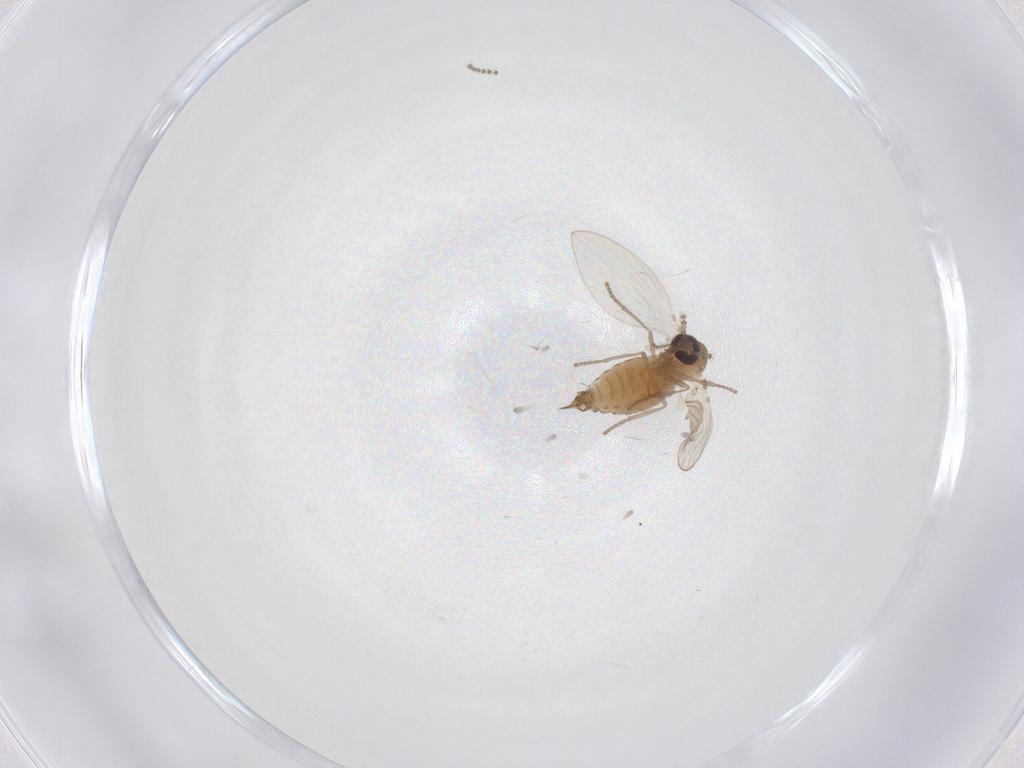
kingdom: Animalia
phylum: Arthropoda
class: Insecta
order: Diptera
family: Psychodidae
